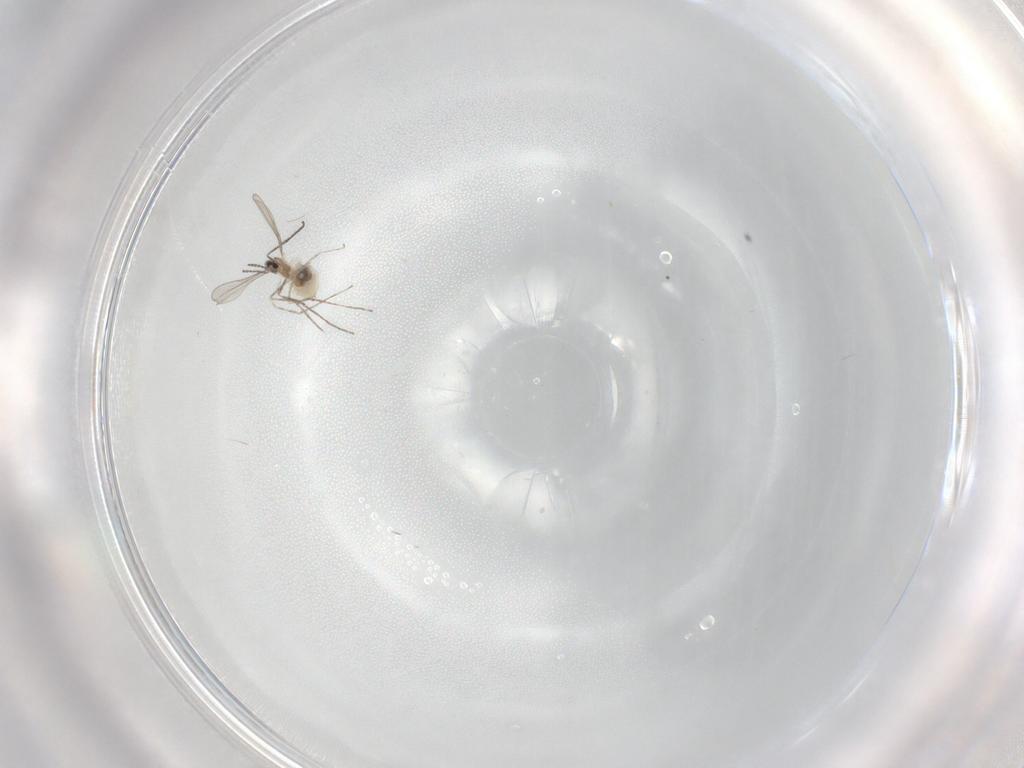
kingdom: Animalia
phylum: Arthropoda
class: Insecta
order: Diptera
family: Cecidomyiidae
